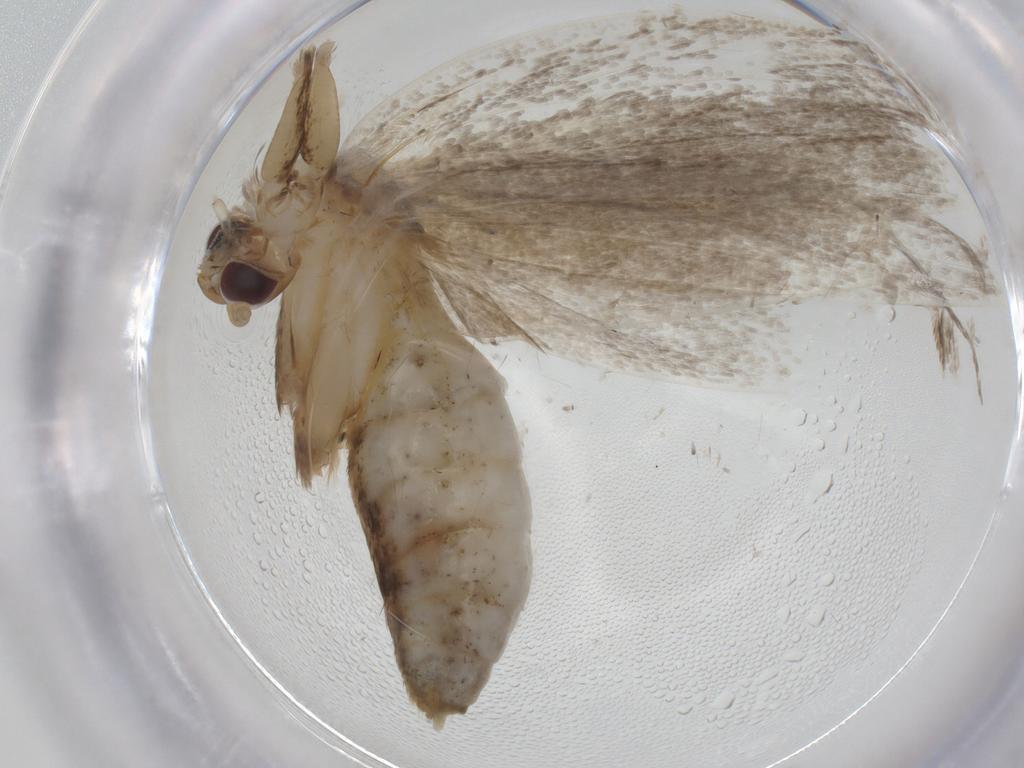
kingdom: Animalia
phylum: Arthropoda
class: Insecta
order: Lepidoptera
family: Depressariidae
